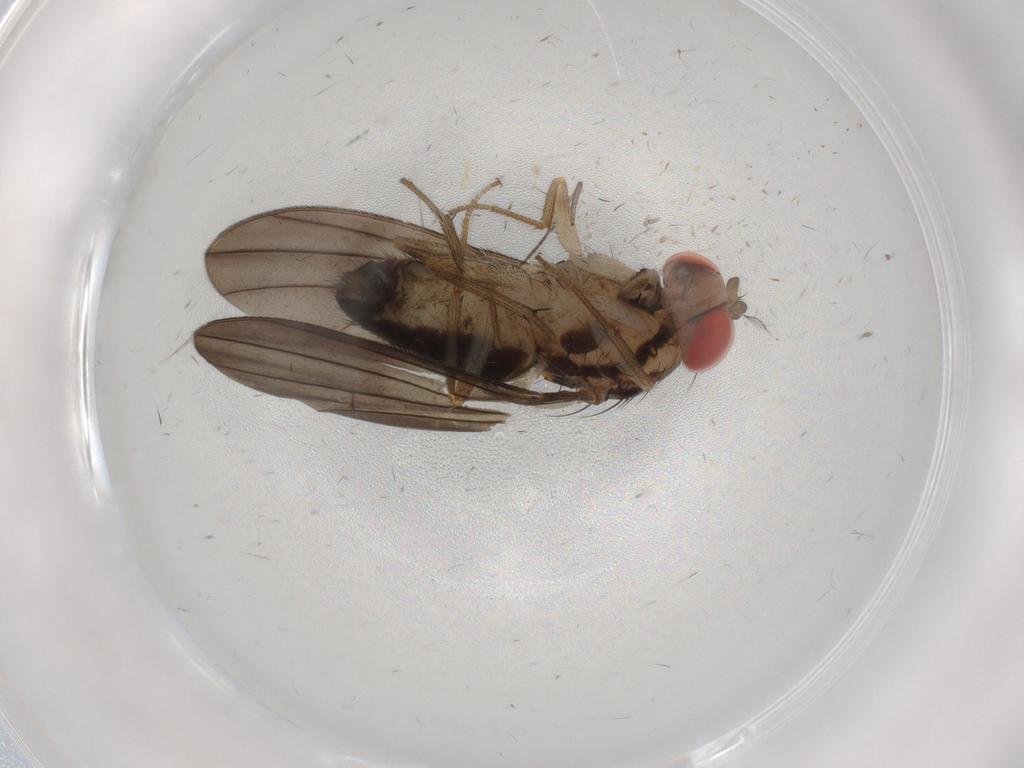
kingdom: Animalia
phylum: Arthropoda
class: Insecta
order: Diptera
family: Drosophilidae
